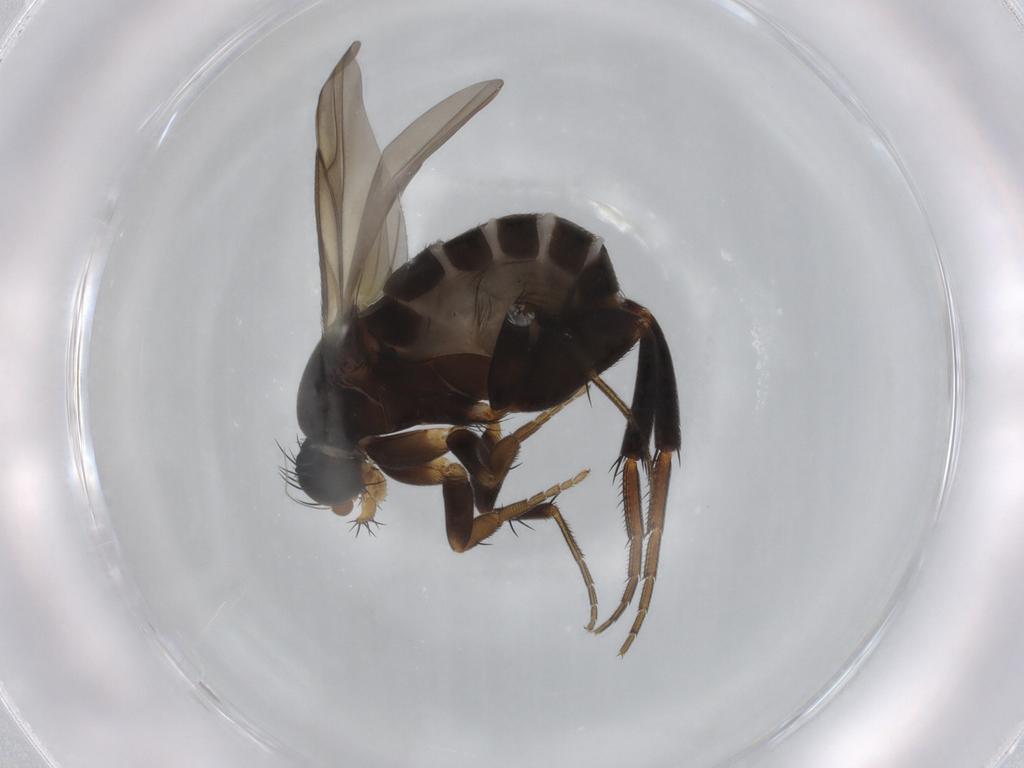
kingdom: Animalia
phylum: Arthropoda
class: Insecta
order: Diptera
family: Phoridae
